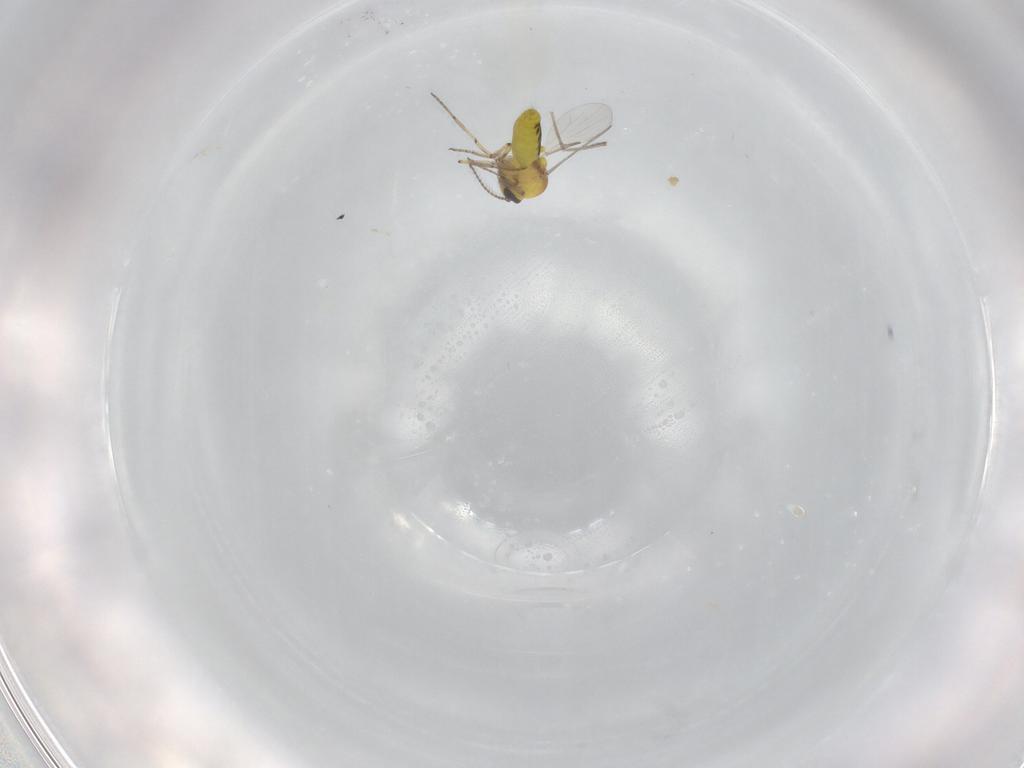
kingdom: Animalia
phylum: Arthropoda
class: Insecta
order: Diptera
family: Ceratopogonidae
